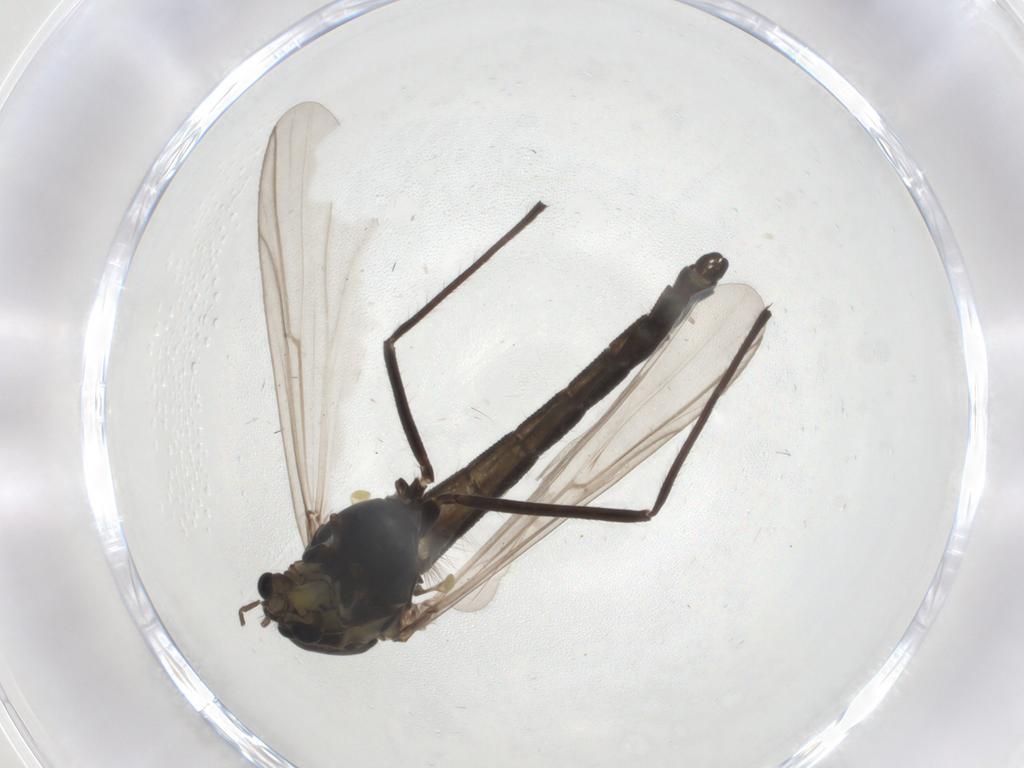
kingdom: Animalia
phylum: Arthropoda
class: Insecta
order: Diptera
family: Chironomidae
